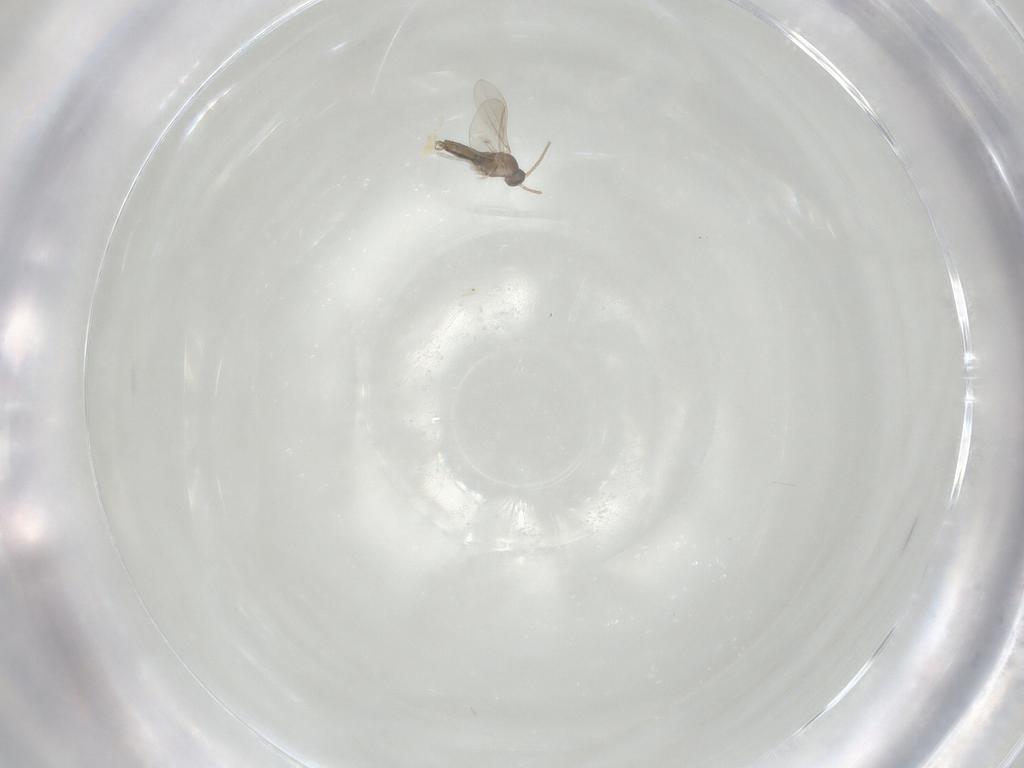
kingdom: Animalia
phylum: Arthropoda
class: Insecta
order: Diptera
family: Cecidomyiidae
